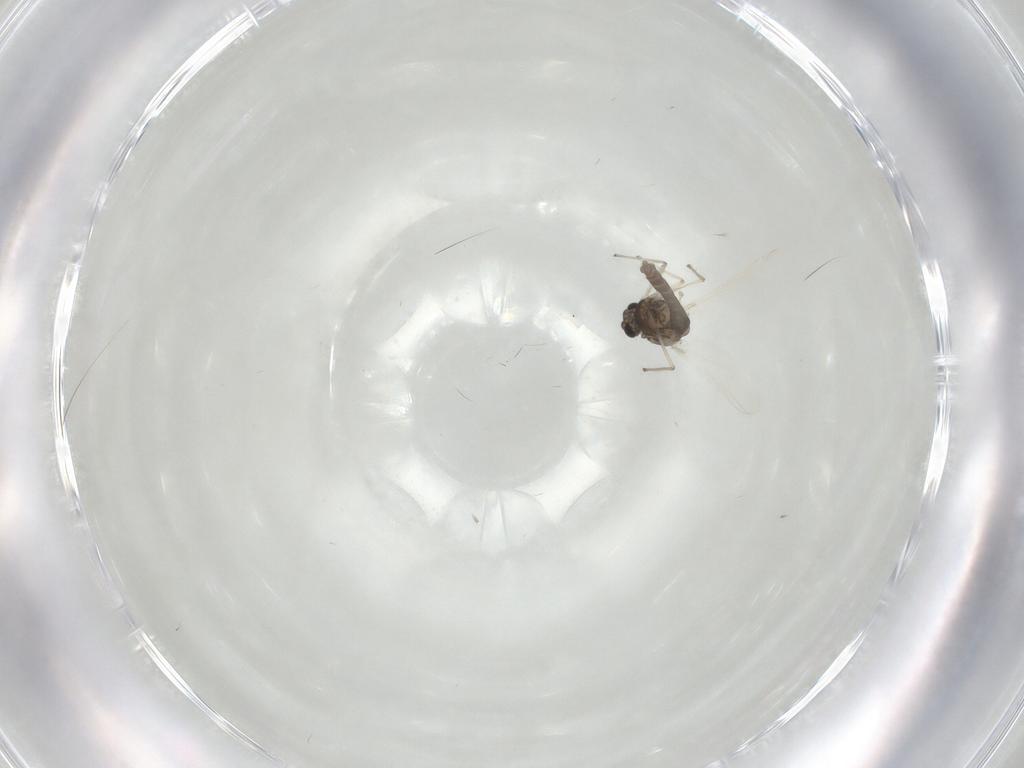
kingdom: Animalia
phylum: Arthropoda
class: Insecta
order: Diptera
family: Chironomidae
